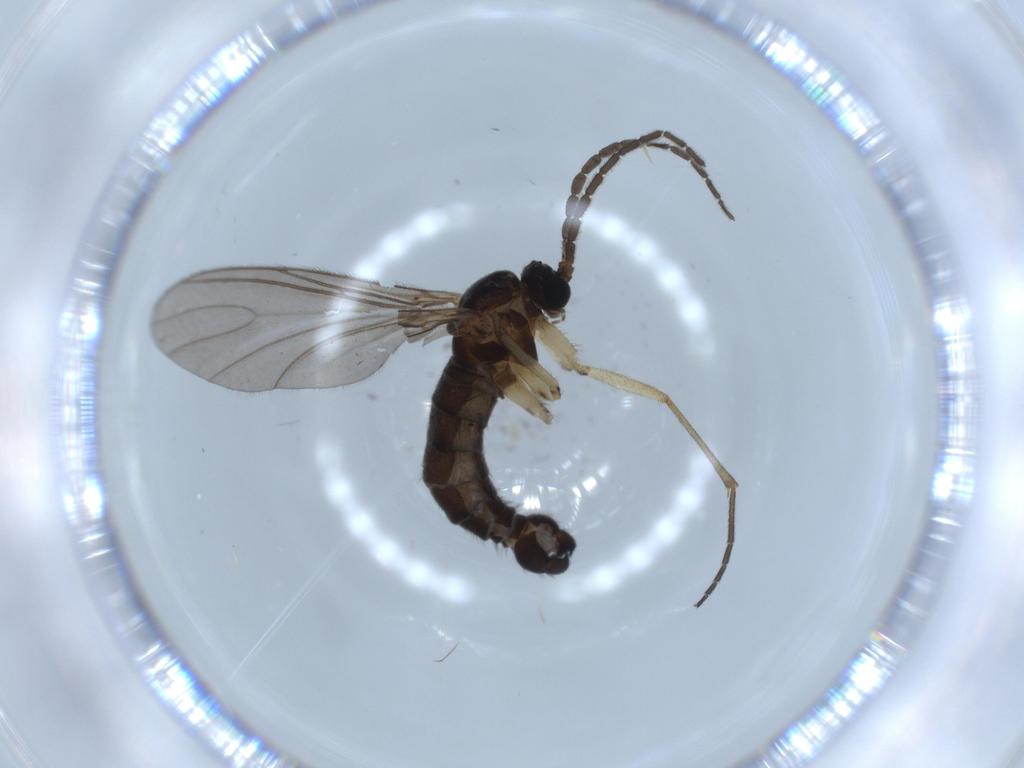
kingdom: Animalia
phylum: Arthropoda
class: Insecta
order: Diptera
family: Sciaridae
